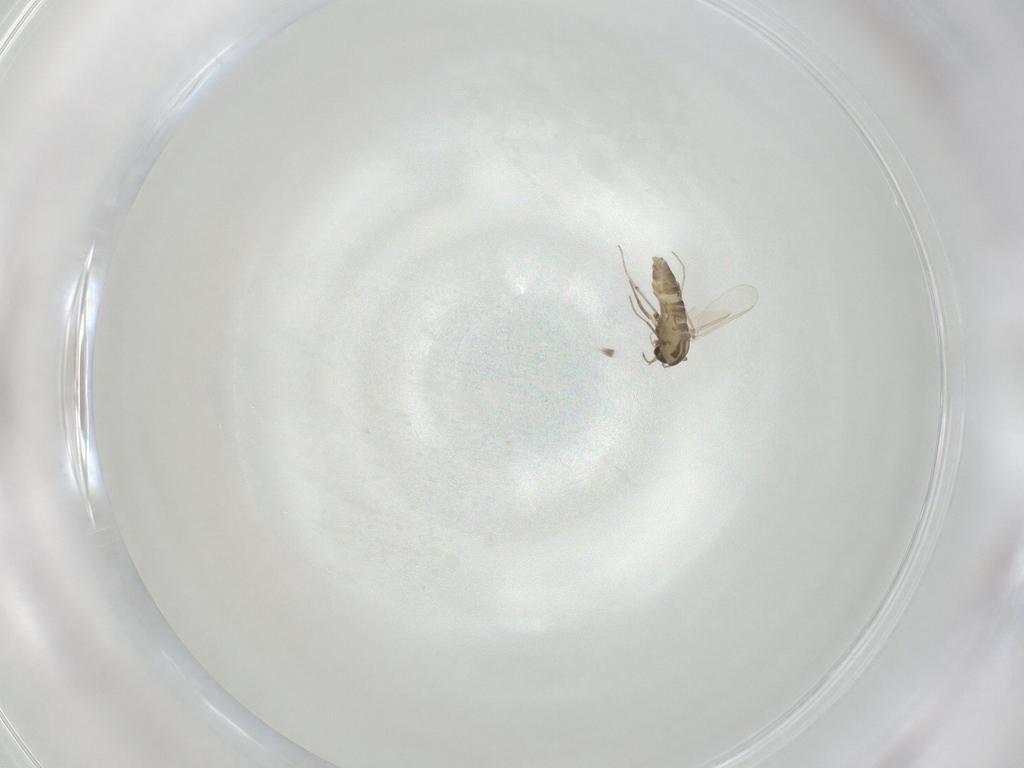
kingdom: Animalia
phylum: Arthropoda
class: Insecta
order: Diptera
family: Chironomidae
